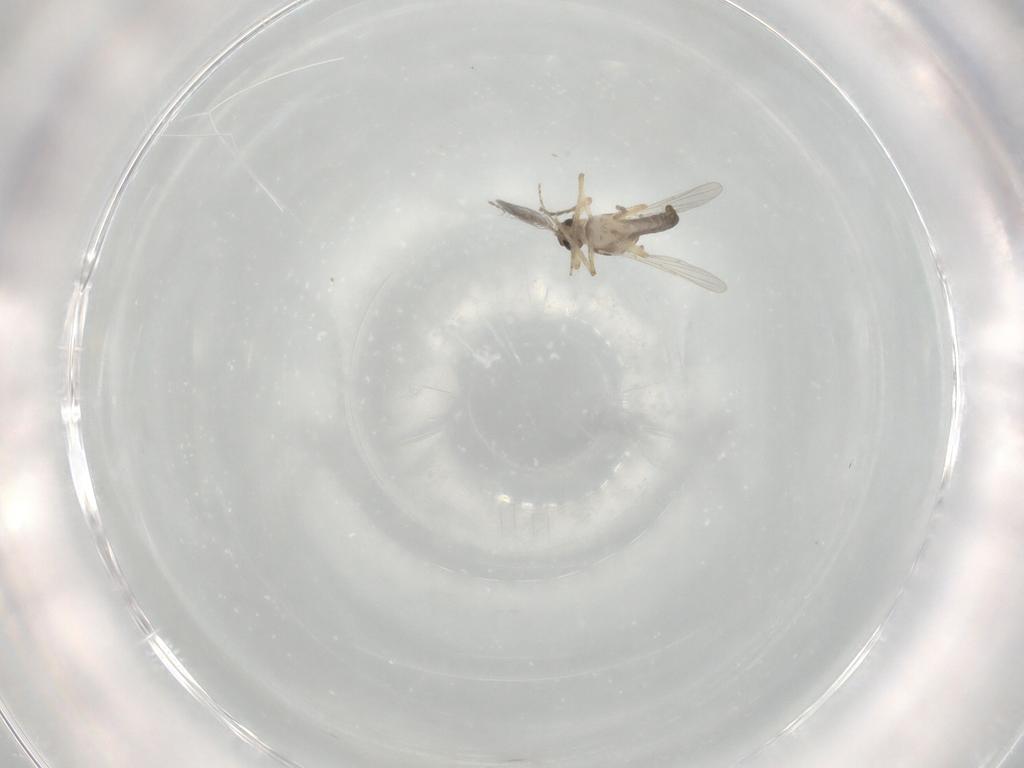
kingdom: Animalia
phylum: Arthropoda
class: Insecta
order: Diptera
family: Ceratopogonidae
